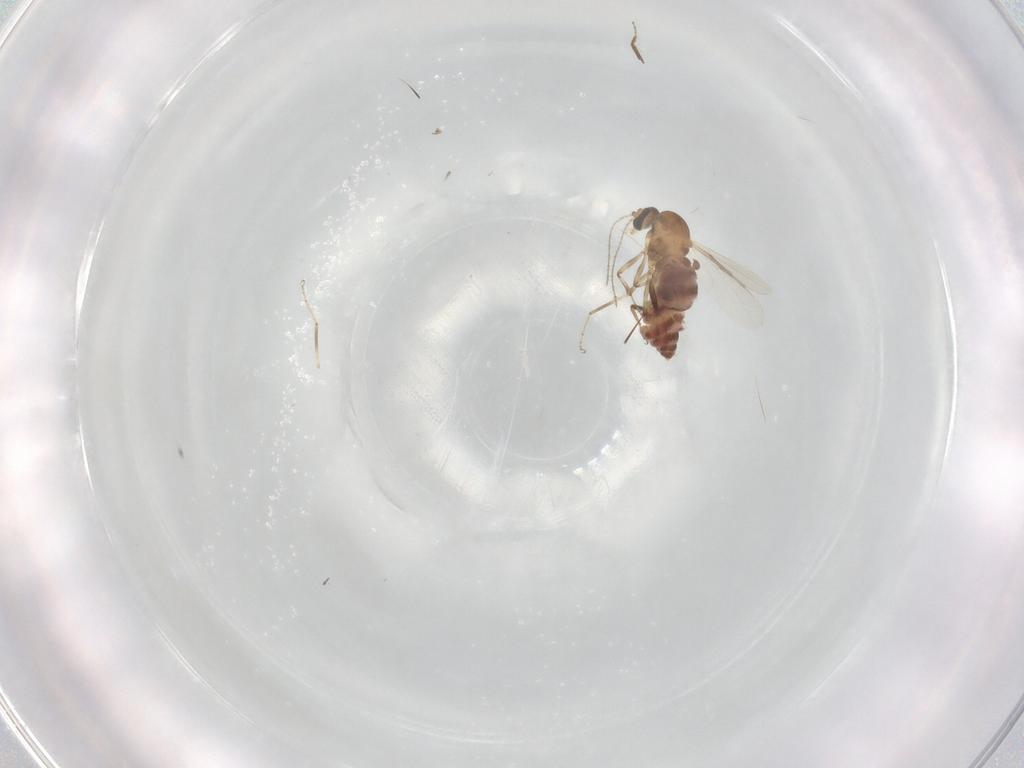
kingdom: Animalia
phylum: Arthropoda
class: Insecta
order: Diptera
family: Ceratopogonidae
